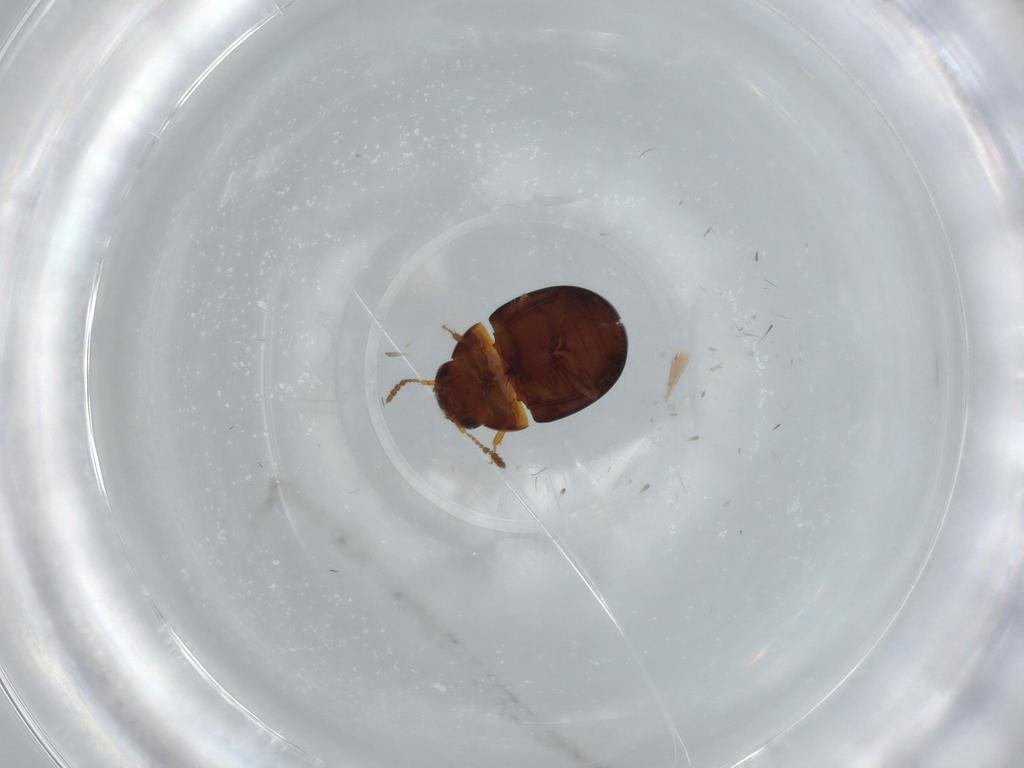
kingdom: Animalia
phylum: Arthropoda
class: Insecta
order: Coleoptera
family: Leiodidae
